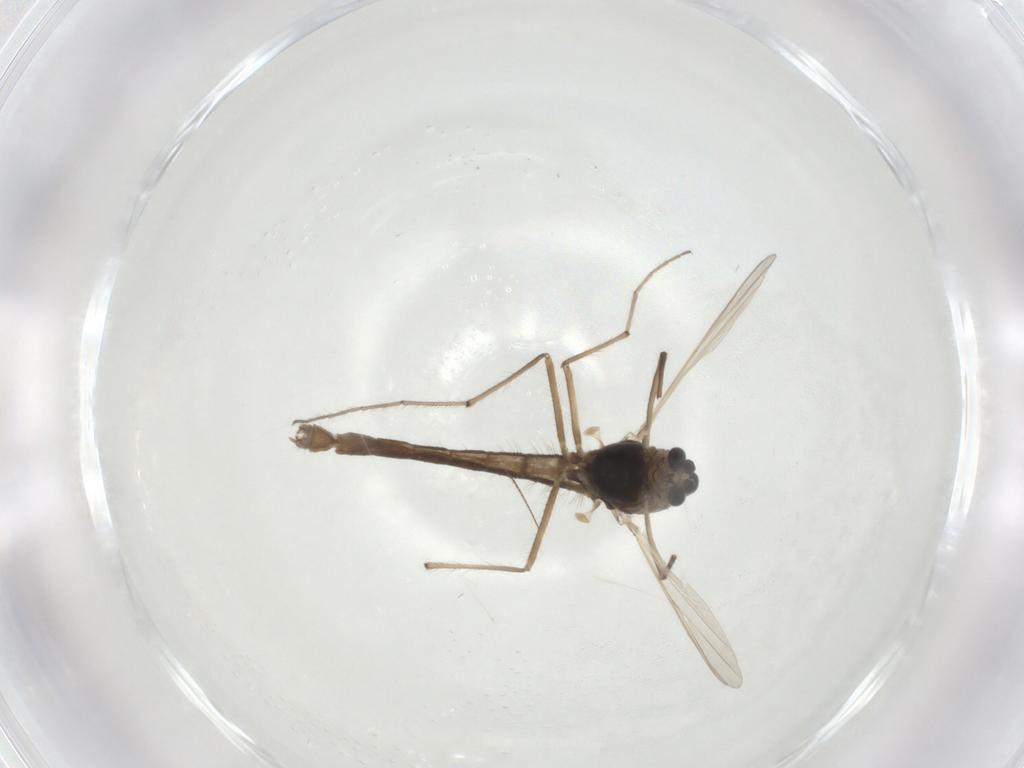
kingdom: Animalia
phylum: Arthropoda
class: Insecta
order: Diptera
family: Chironomidae
